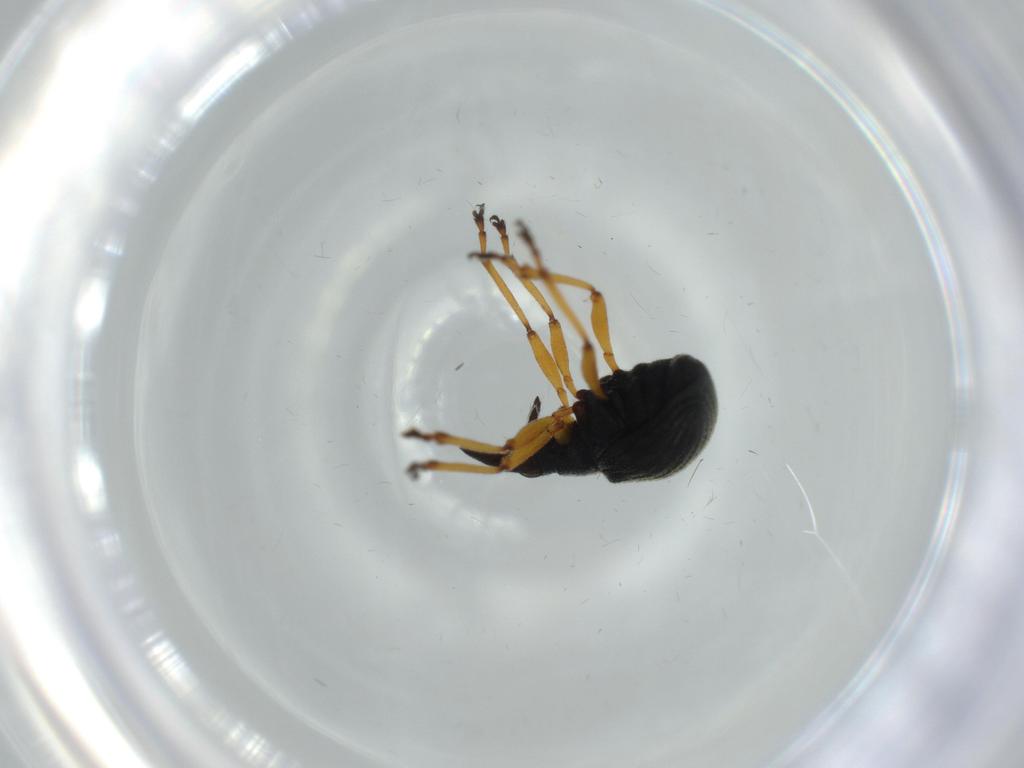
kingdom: Animalia
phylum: Arthropoda
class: Insecta
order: Coleoptera
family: Brentidae
